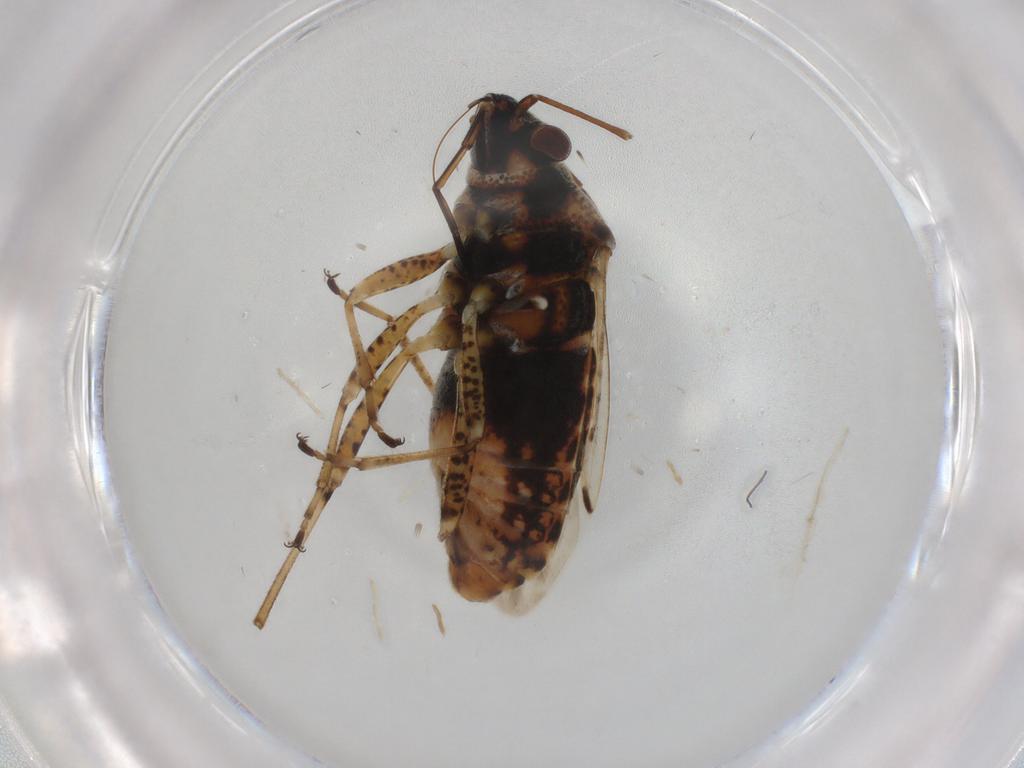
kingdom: Animalia
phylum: Arthropoda
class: Insecta
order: Hemiptera
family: Lygaeidae
